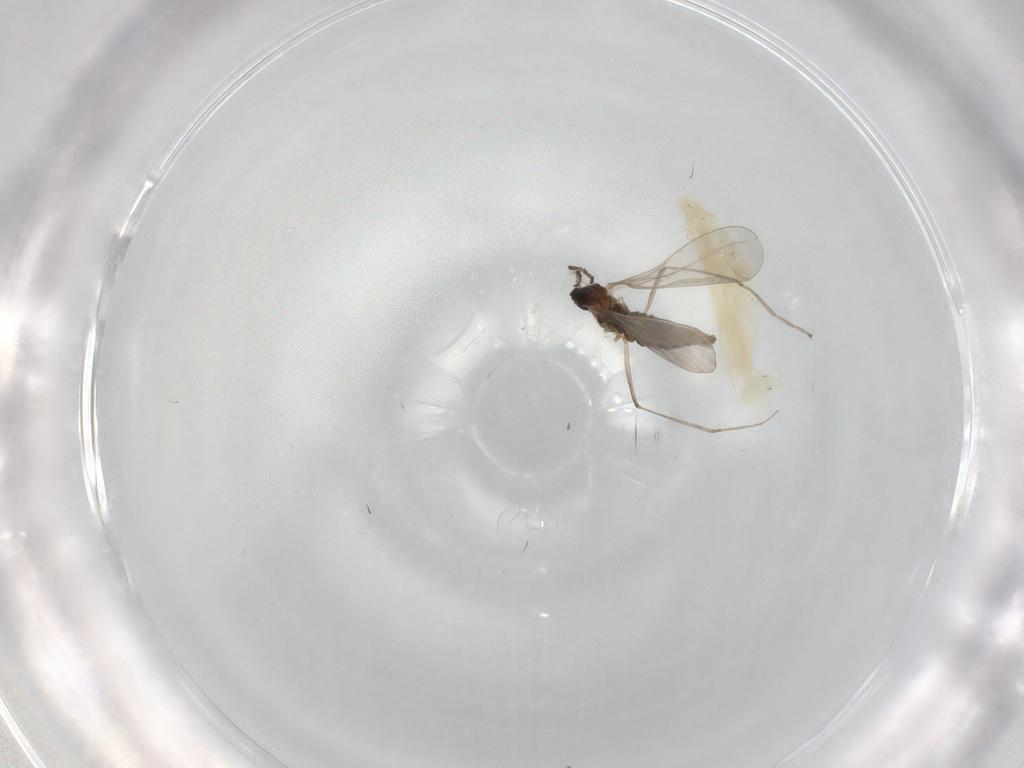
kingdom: Animalia
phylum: Arthropoda
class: Insecta
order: Diptera
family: Cecidomyiidae
